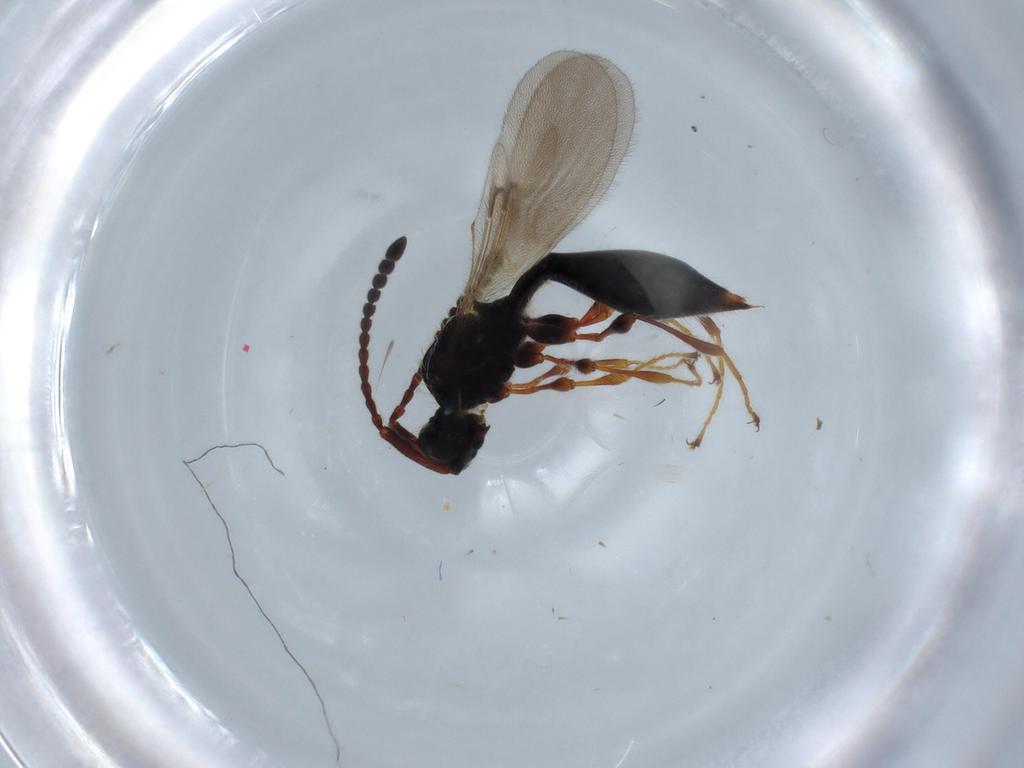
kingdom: Animalia
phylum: Arthropoda
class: Insecta
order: Hymenoptera
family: Diapriidae
